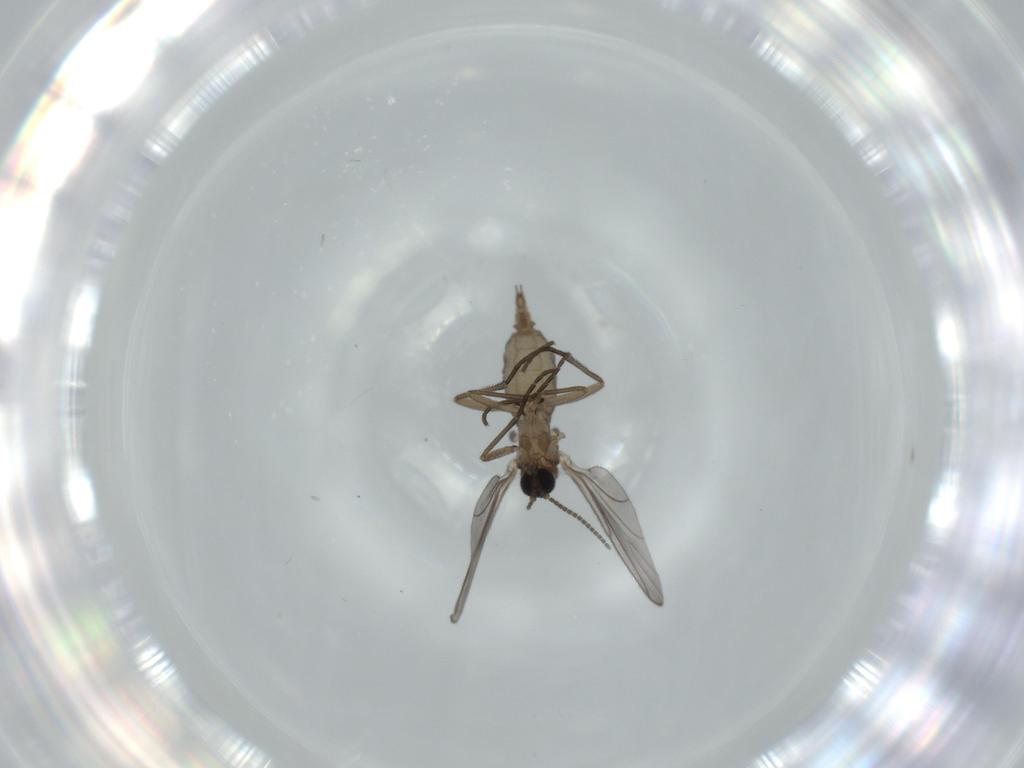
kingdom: Animalia
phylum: Arthropoda
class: Insecta
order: Diptera
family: Sciaridae
